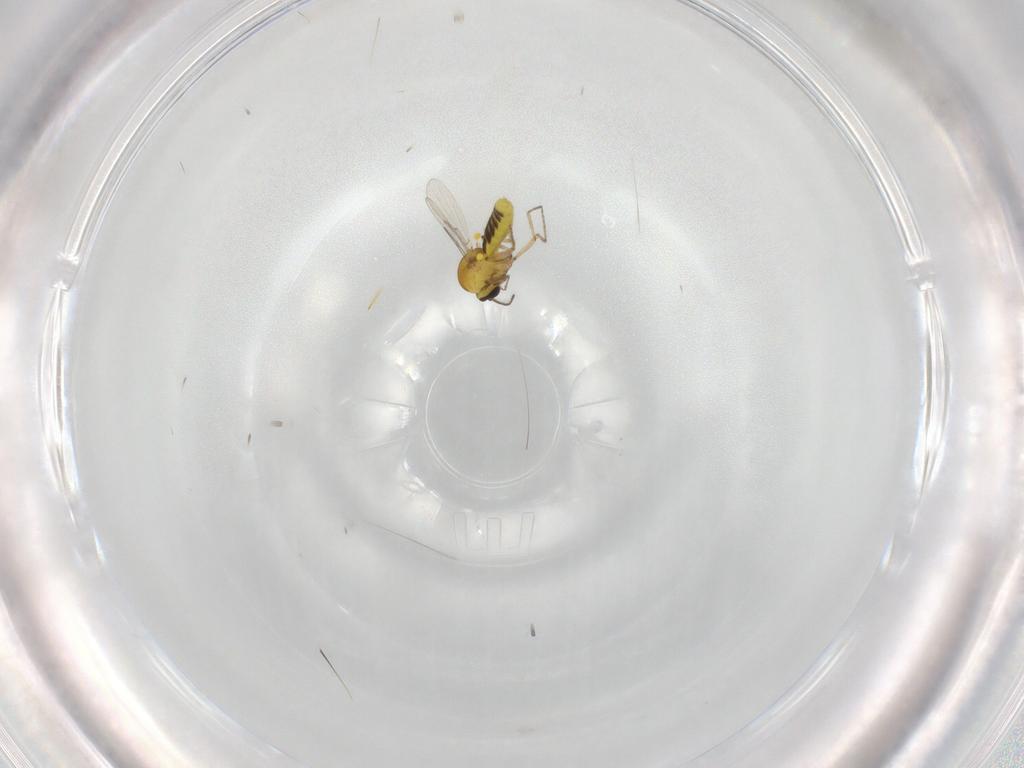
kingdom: Animalia
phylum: Arthropoda
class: Insecta
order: Diptera
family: Ceratopogonidae
